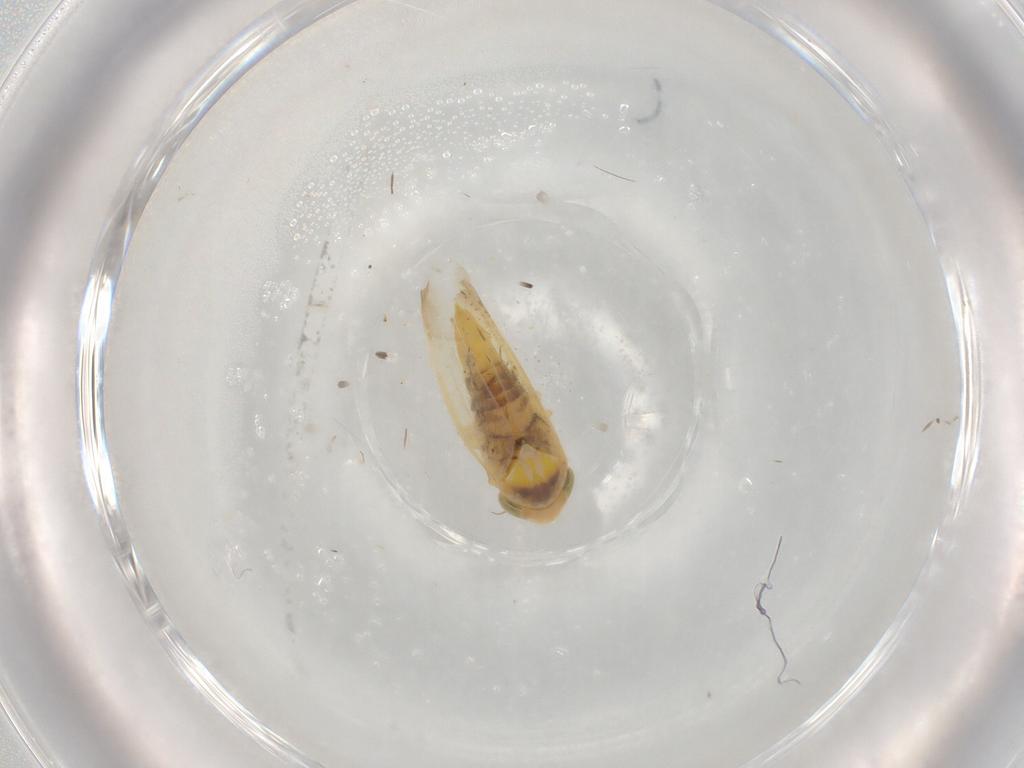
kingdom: Animalia
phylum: Arthropoda
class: Insecta
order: Hemiptera
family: Cicadellidae
